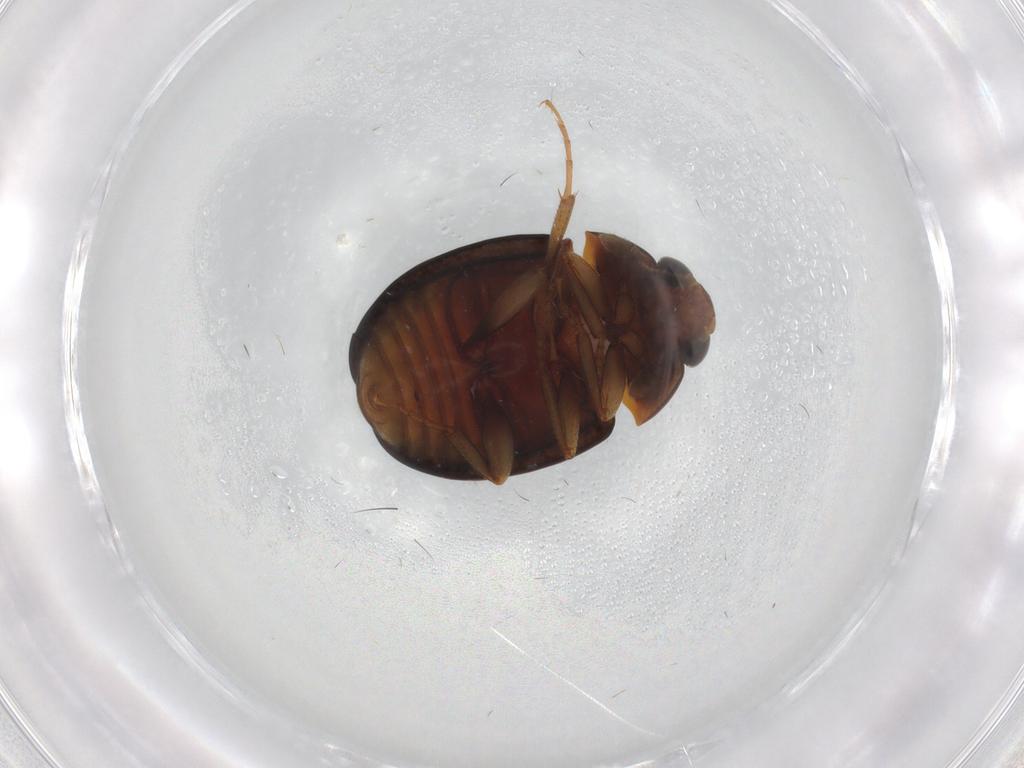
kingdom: Animalia
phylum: Arthropoda
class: Insecta
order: Coleoptera
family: Nitidulidae
